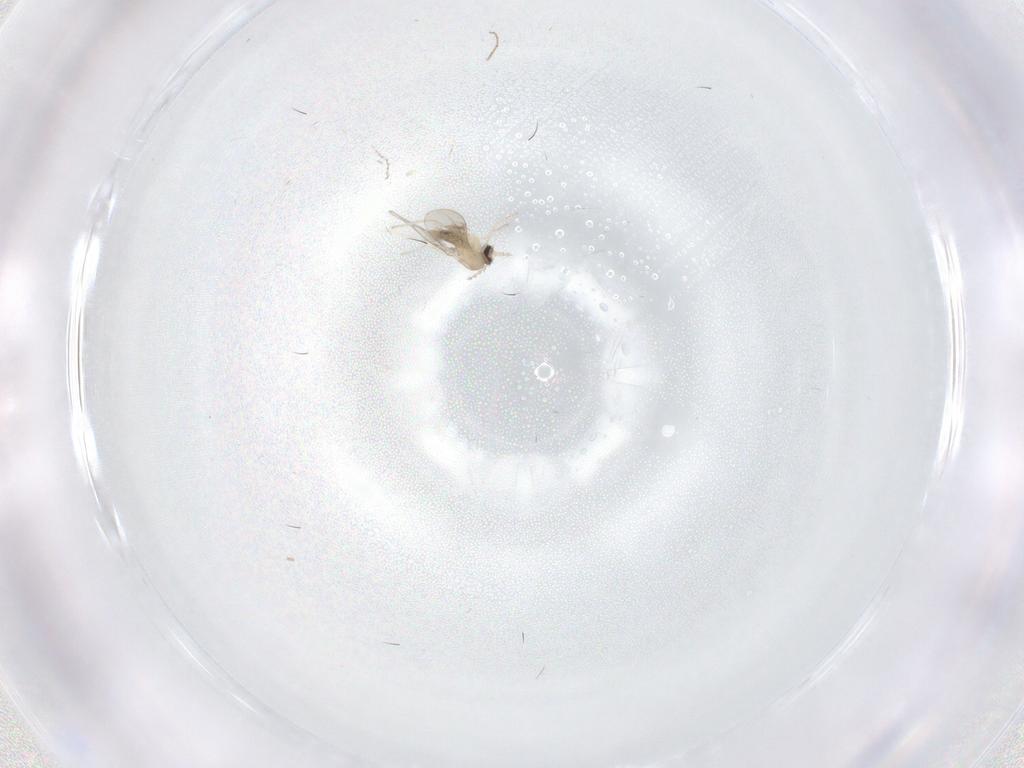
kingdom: Animalia
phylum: Arthropoda
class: Insecta
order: Diptera
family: Cecidomyiidae
